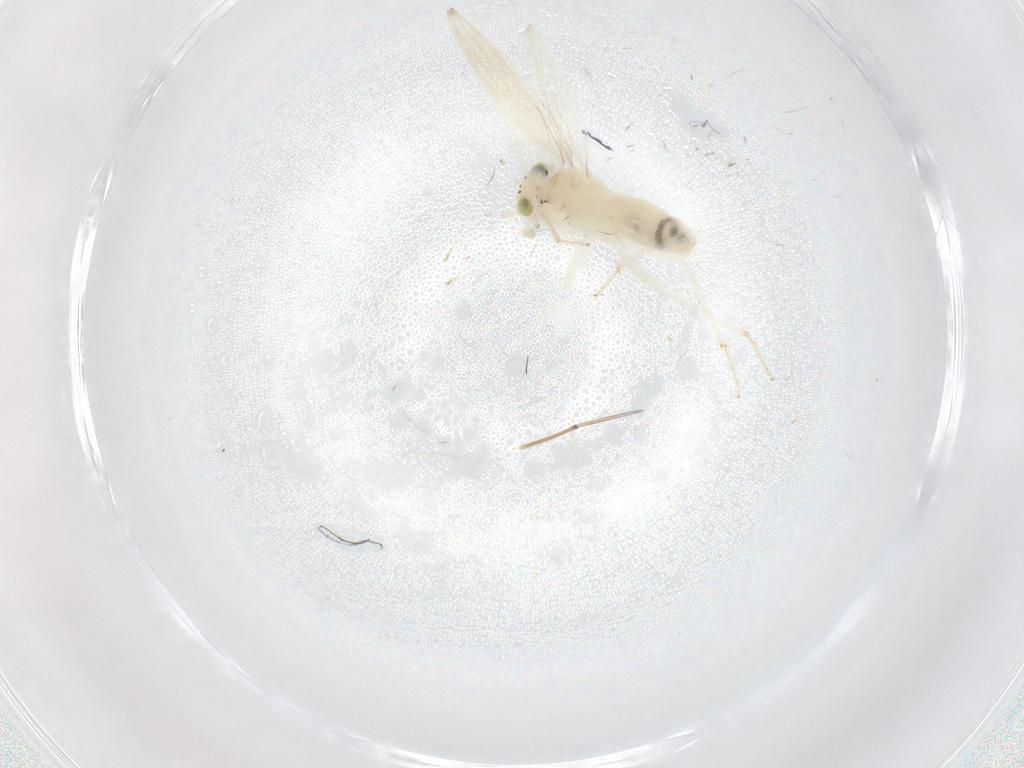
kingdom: Animalia
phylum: Arthropoda
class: Insecta
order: Psocodea
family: Lepidopsocidae
